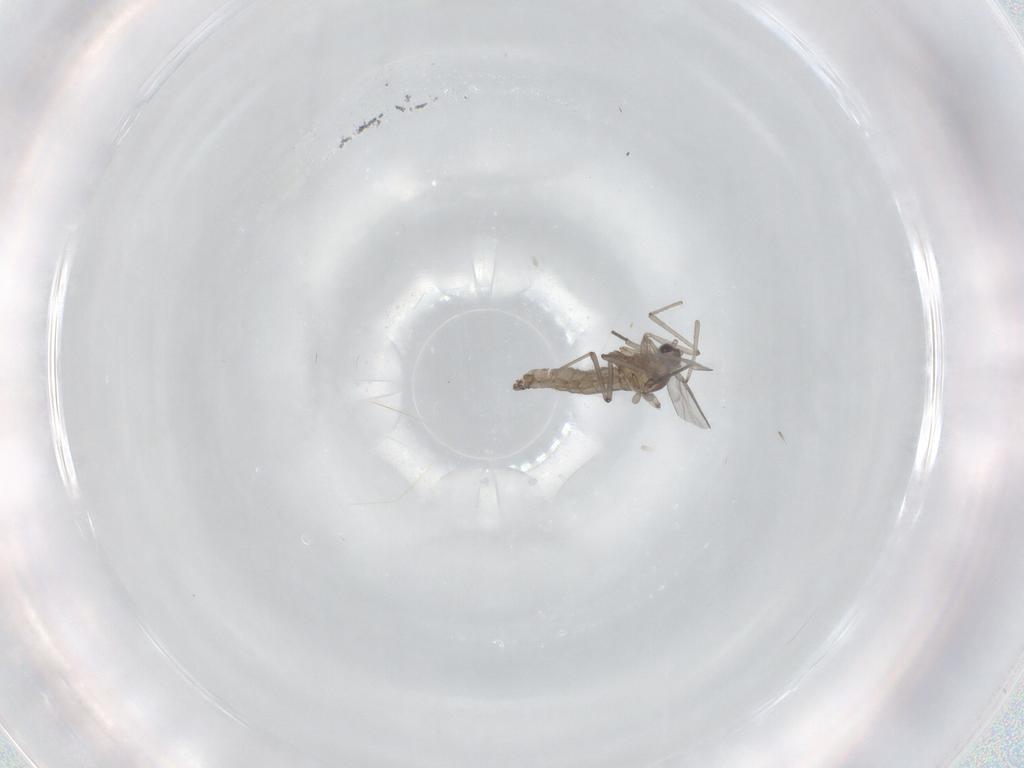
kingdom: Animalia
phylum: Arthropoda
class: Insecta
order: Diptera
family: Cecidomyiidae
